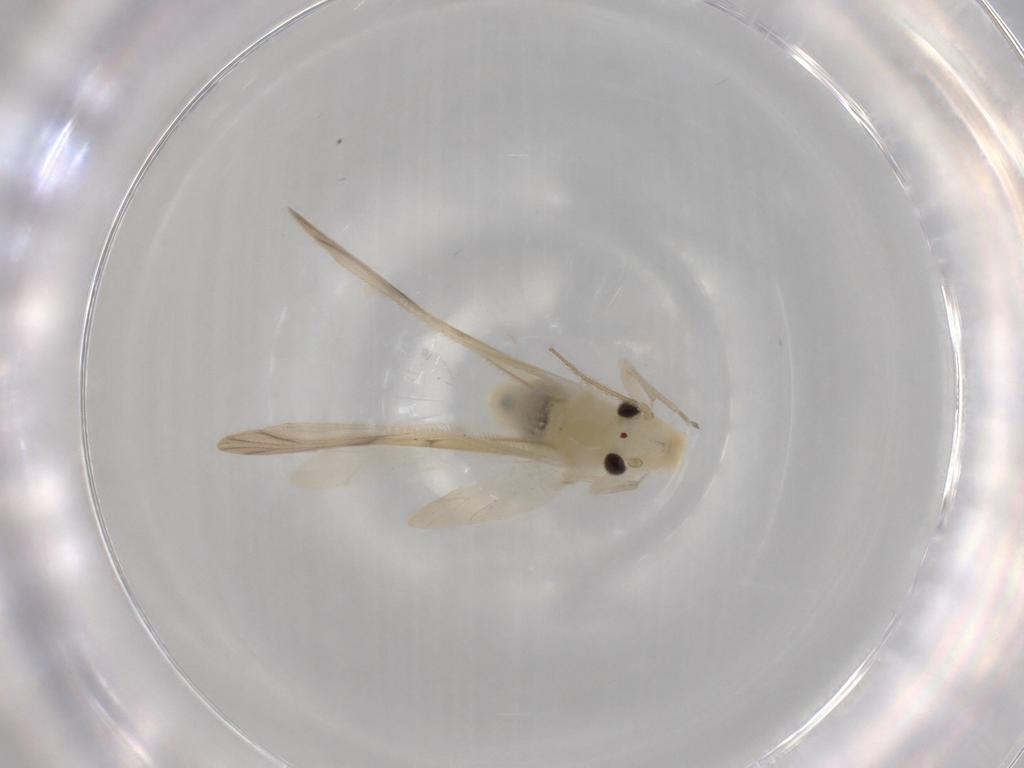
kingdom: Animalia
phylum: Arthropoda
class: Insecta
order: Psocodea
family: Caeciliusidae
